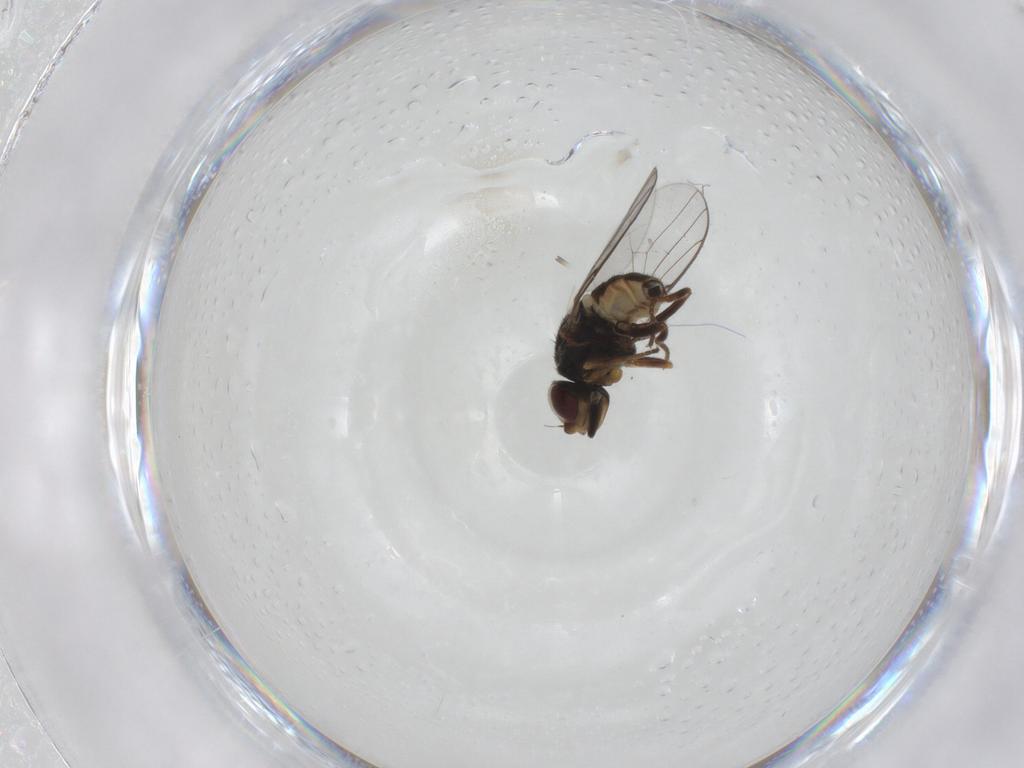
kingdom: Animalia
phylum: Arthropoda
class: Insecta
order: Diptera
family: Chloropidae
